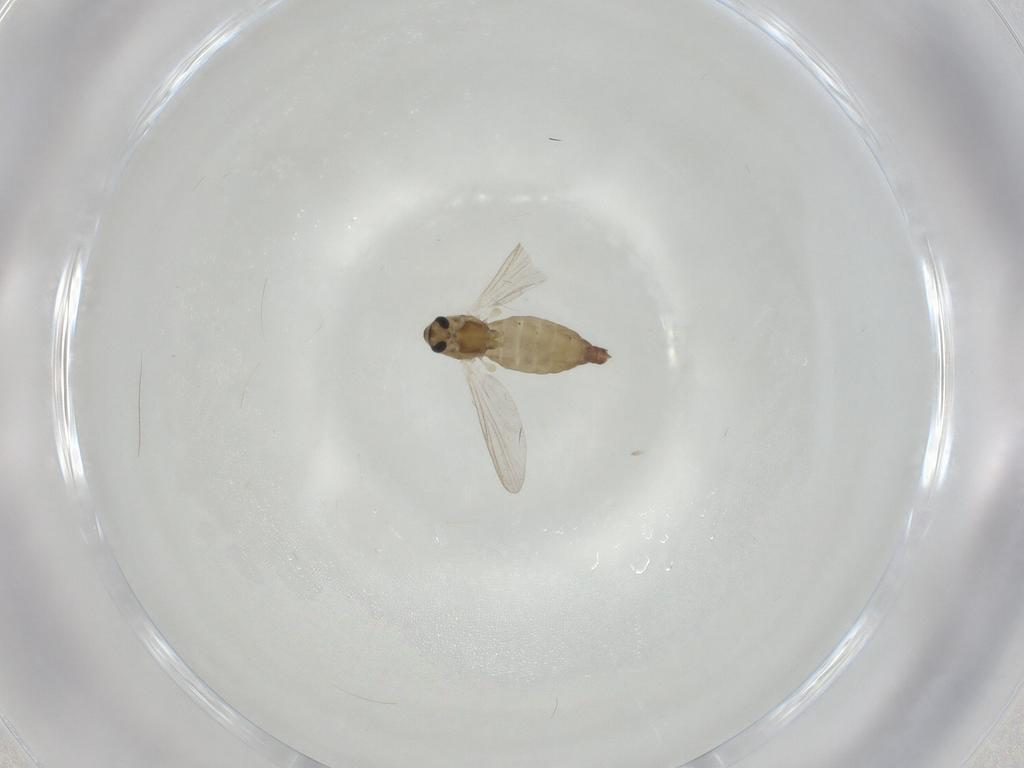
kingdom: Animalia
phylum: Arthropoda
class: Insecta
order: Diptera
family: Chironomidae
